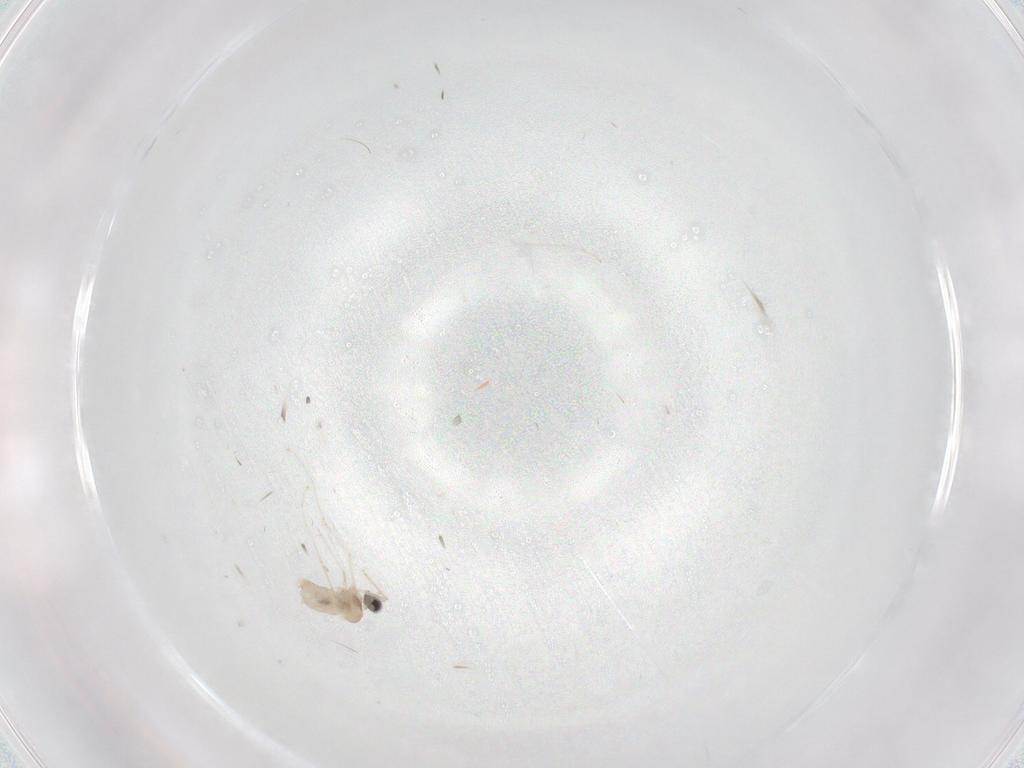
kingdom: Animalia
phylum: Arthropoda
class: Insecta
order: Diptera
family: Cecidomyiidae
